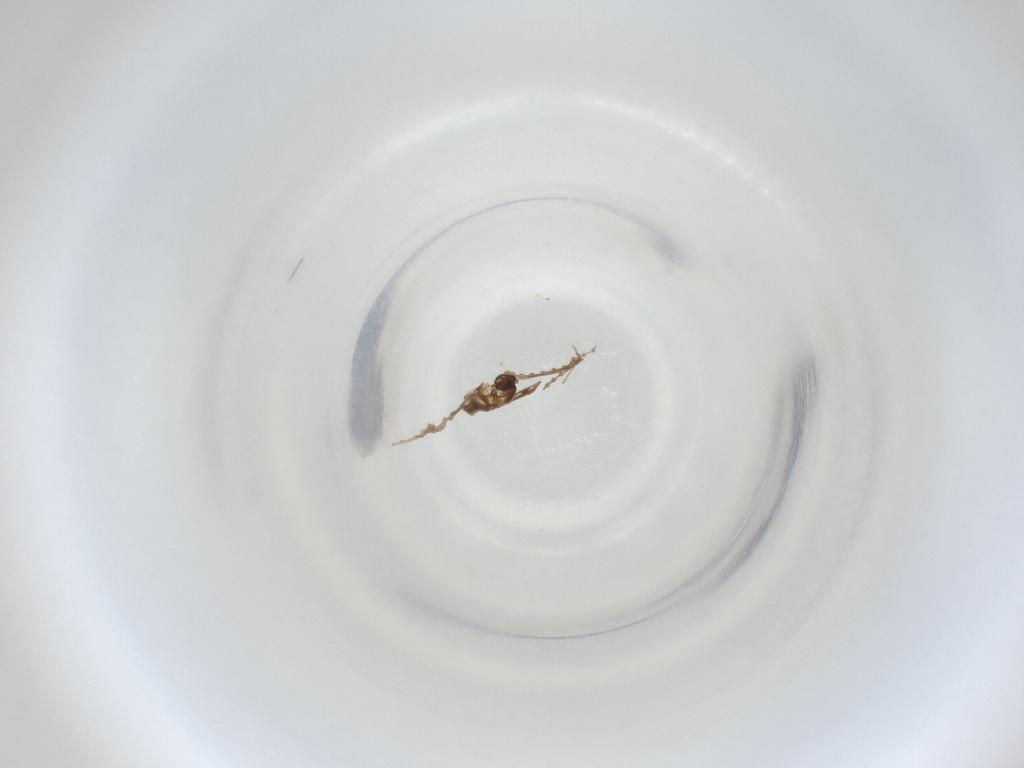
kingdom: Animalia
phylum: Arthropoda
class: Insecta
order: Diptera
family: Cecidomyiidae
